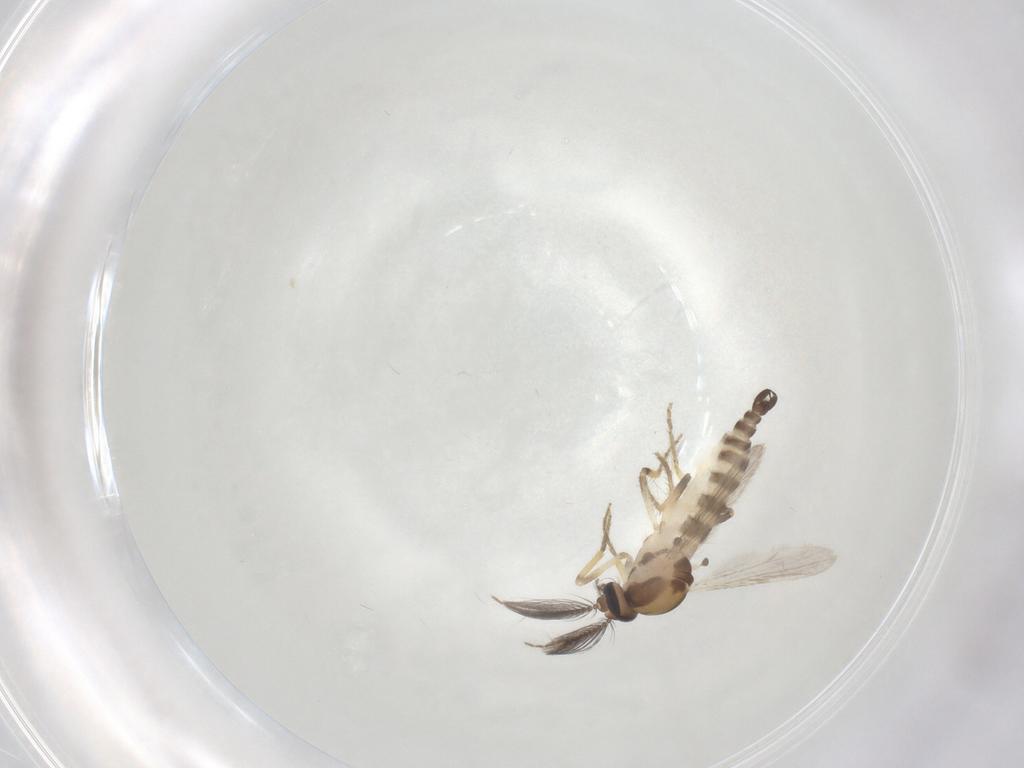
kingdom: Animalia
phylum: Arthropoda
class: Insecta
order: Diptera
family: Ceratopogonidae
